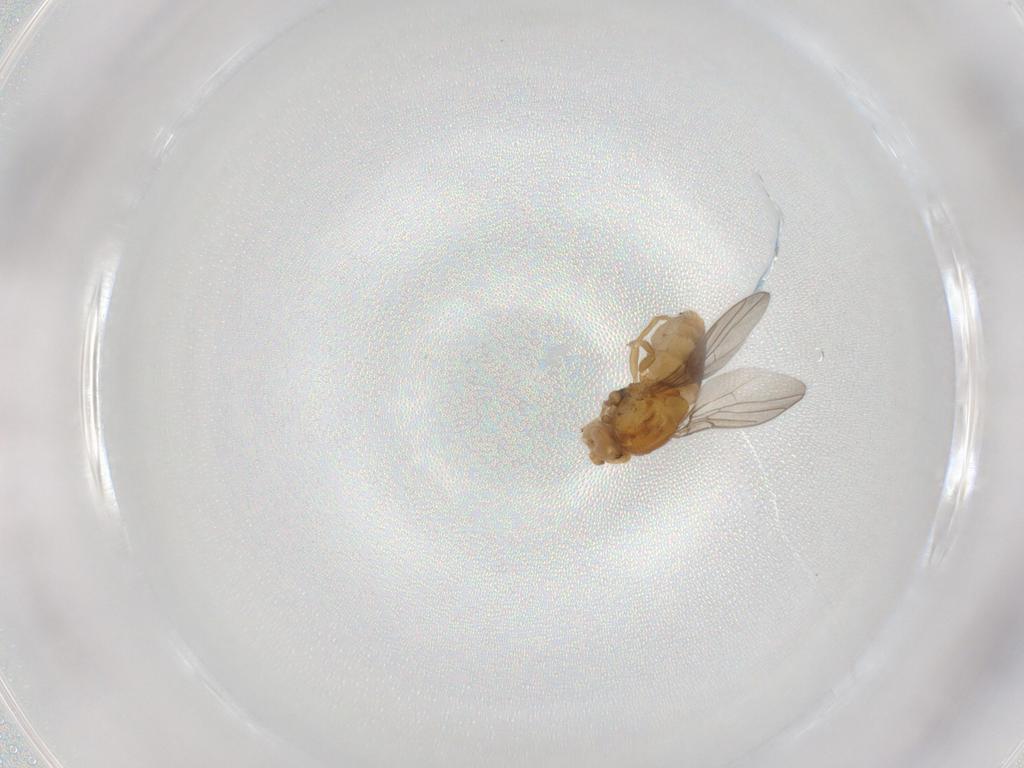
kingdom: Animalia
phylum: Arthropoda
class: Insecta
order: Diptera
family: Chloropidae
